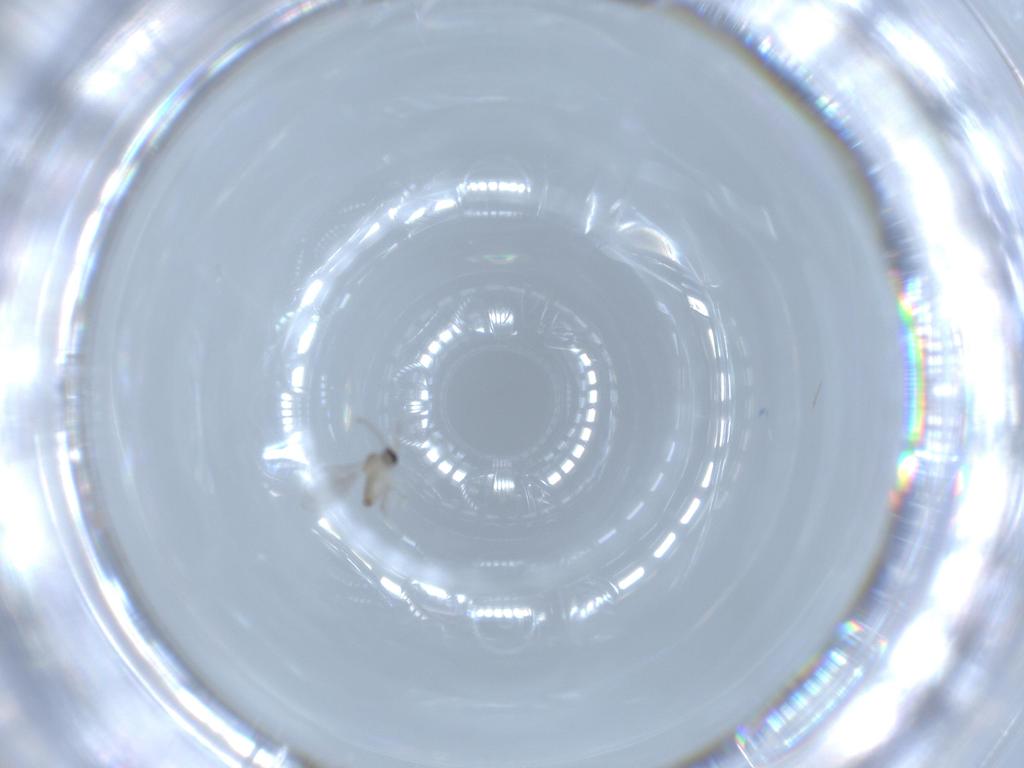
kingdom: Animalia
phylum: Arthropoda
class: Insecta
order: Diptera
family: Cecidomyiidae
